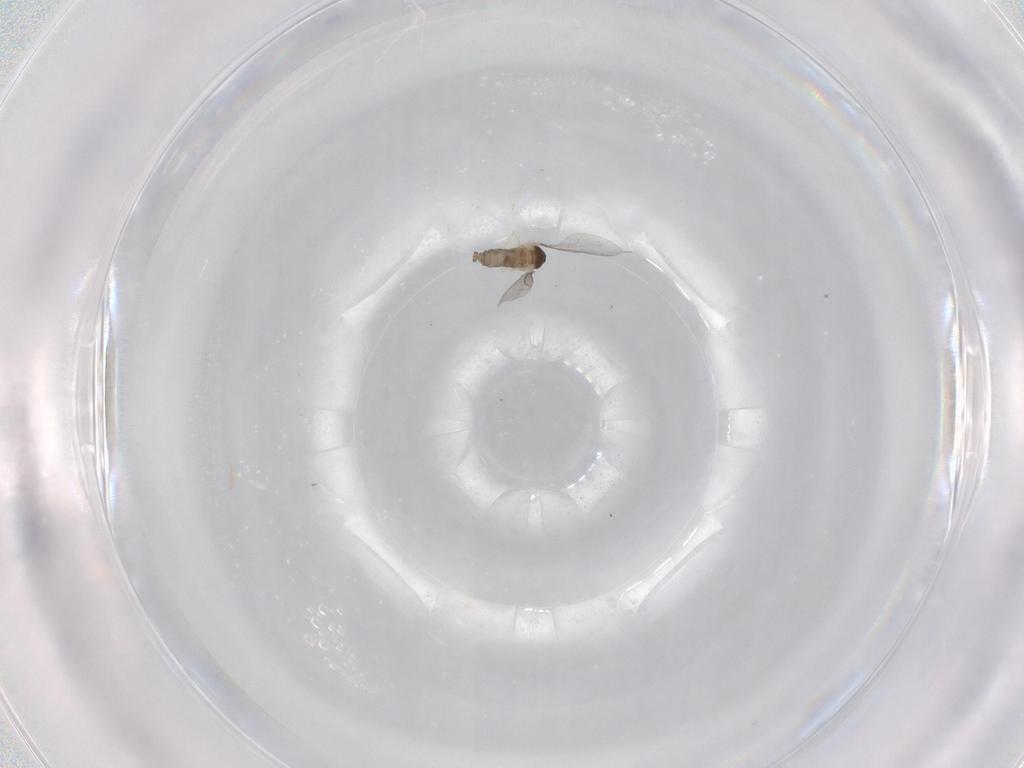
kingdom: Animalia
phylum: Arthropoda
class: Insecta
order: Diptera
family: Cecidomyiidae
